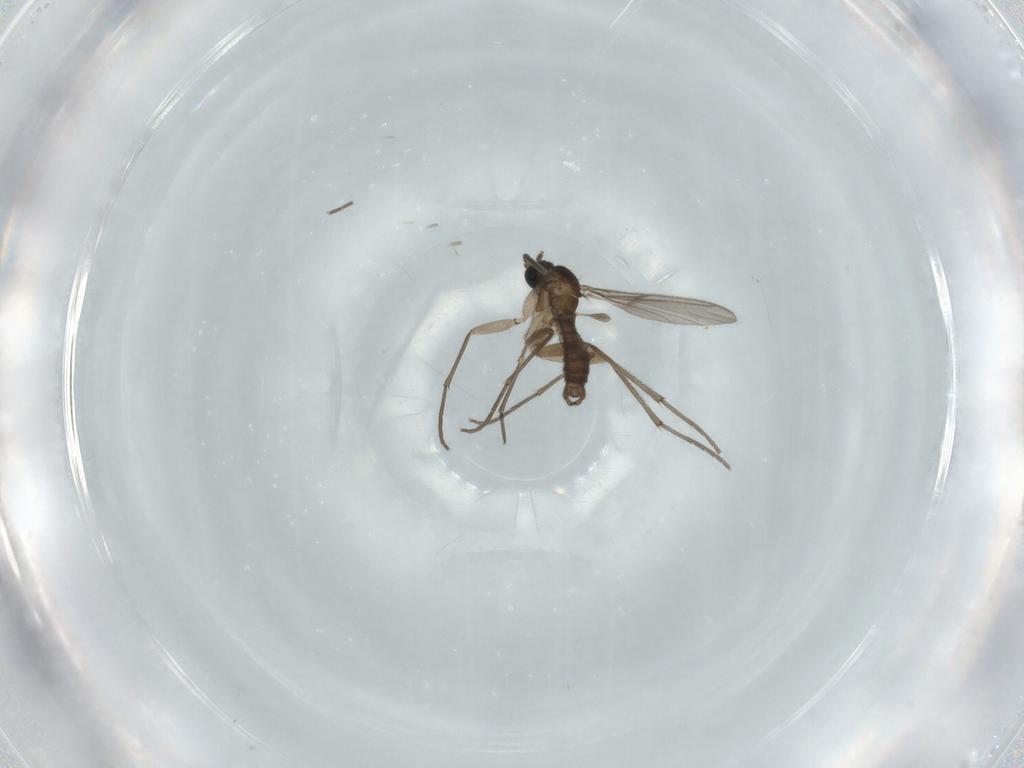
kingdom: Animalia
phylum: Arthropoda
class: Insecta
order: Diptera
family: Sciaridae
